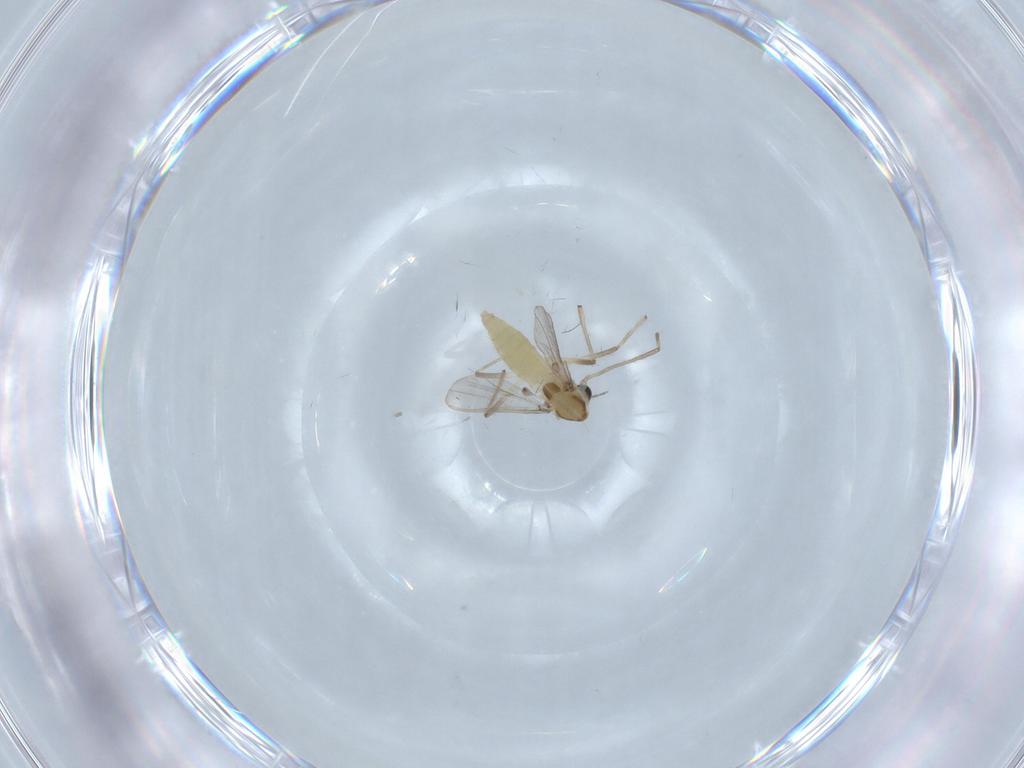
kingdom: Animalia
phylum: Arthropoda
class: Insecta
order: Diptera
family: Chironomidae
